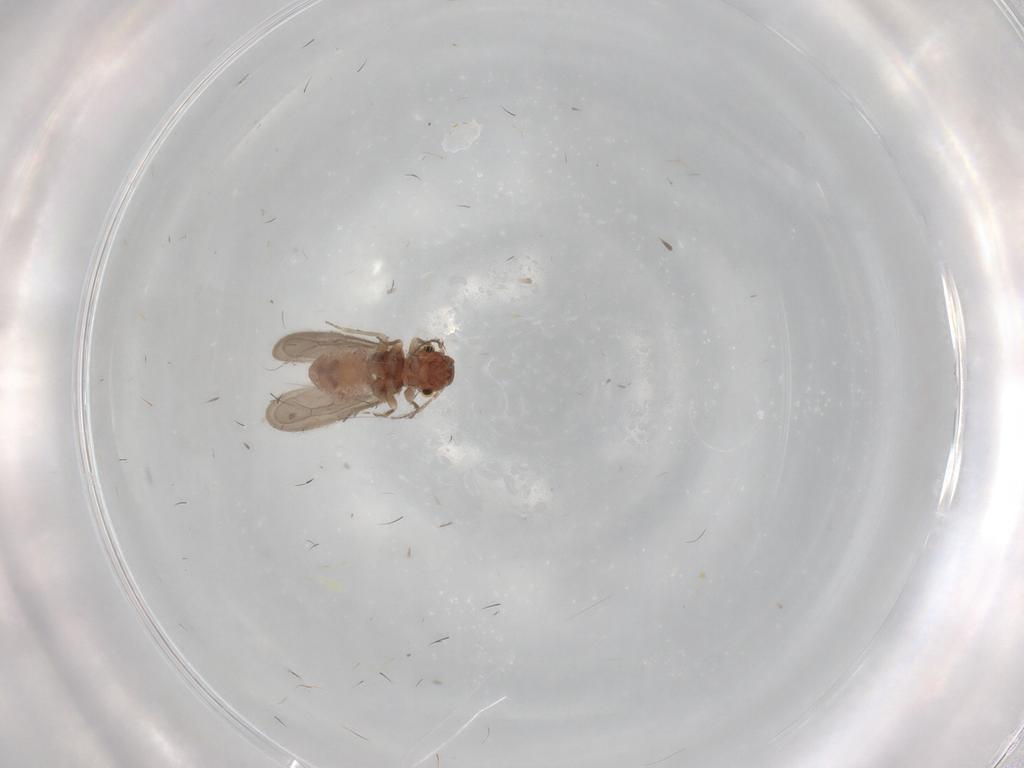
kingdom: Animalia
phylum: Arthropoda
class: Insecta
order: Psocodea
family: Archipsocidae
